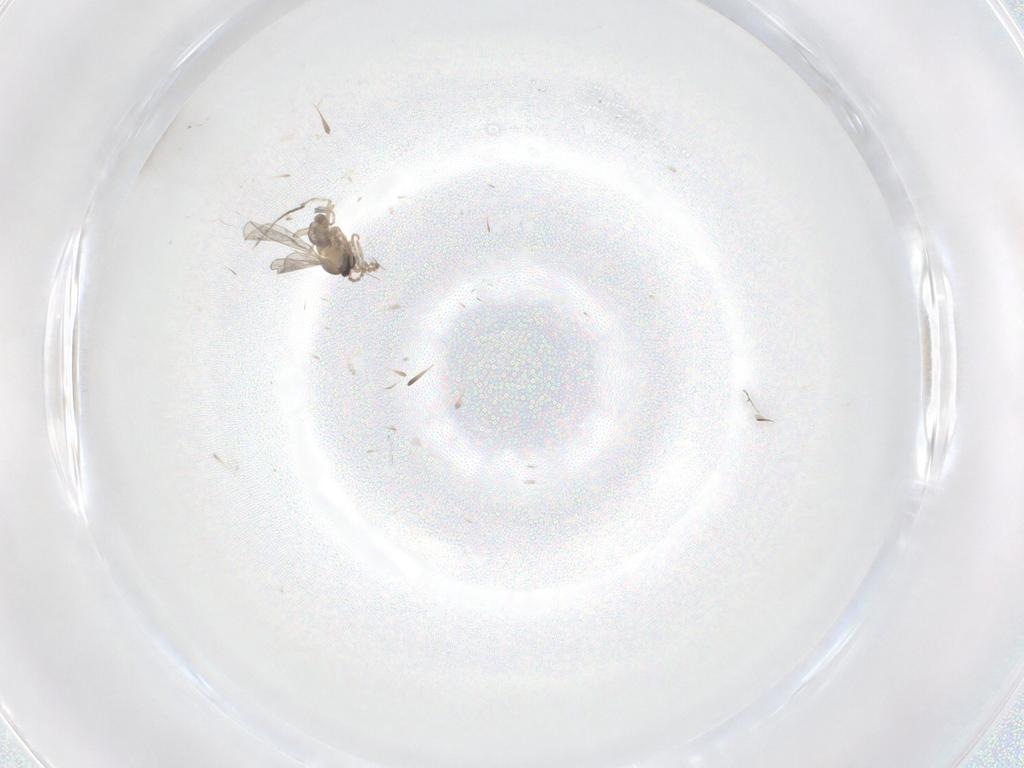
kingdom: Animalia
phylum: Arthropoda
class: Insecta
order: Diptera
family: Cecidomyiidae
